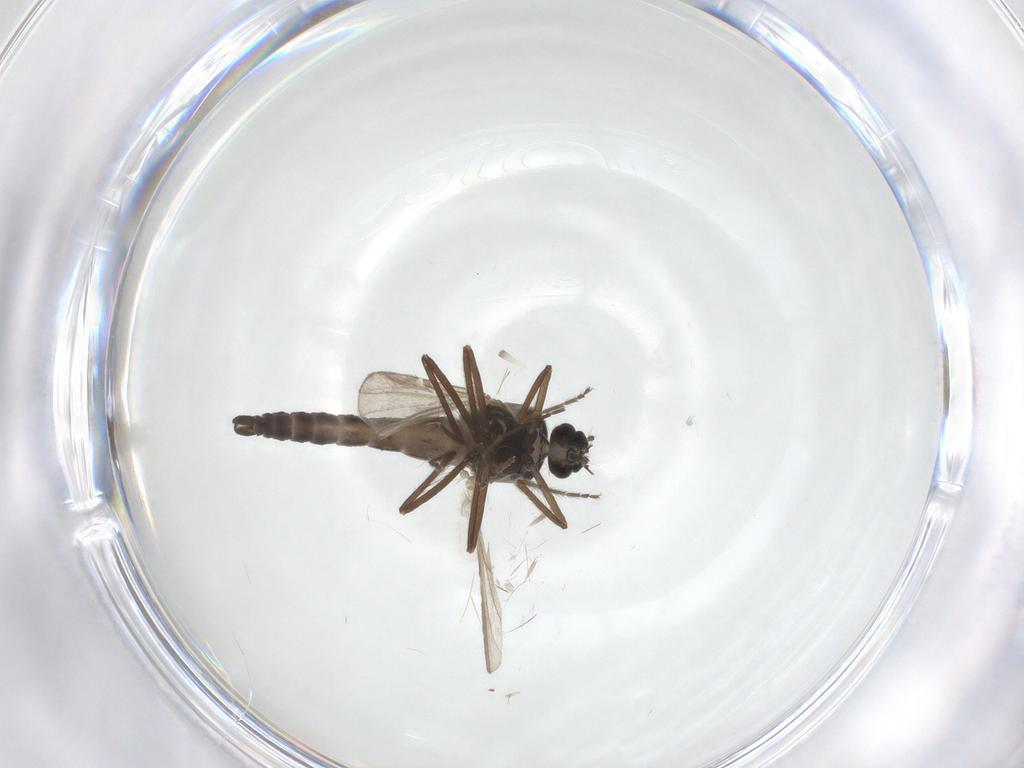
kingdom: Animalia
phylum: Arthropoda
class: Insecta
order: Diptera
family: Ceratopogonidae
